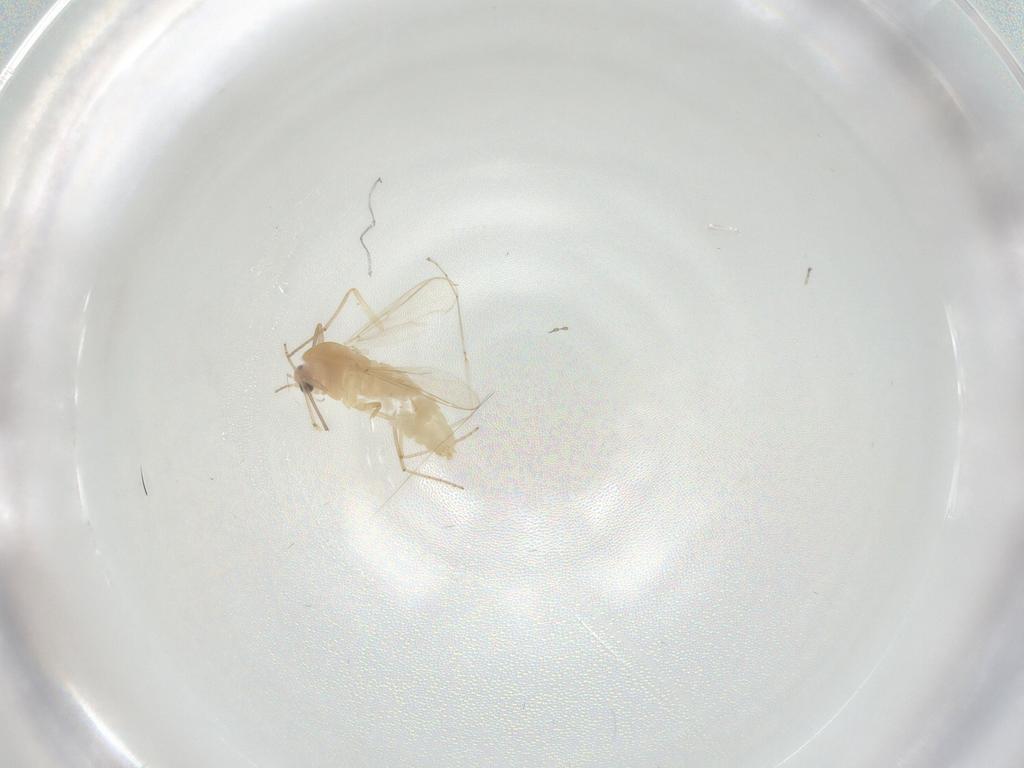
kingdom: Animalia
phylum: Arthropoda
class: Insecta
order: Diptera
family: Chironomidae
